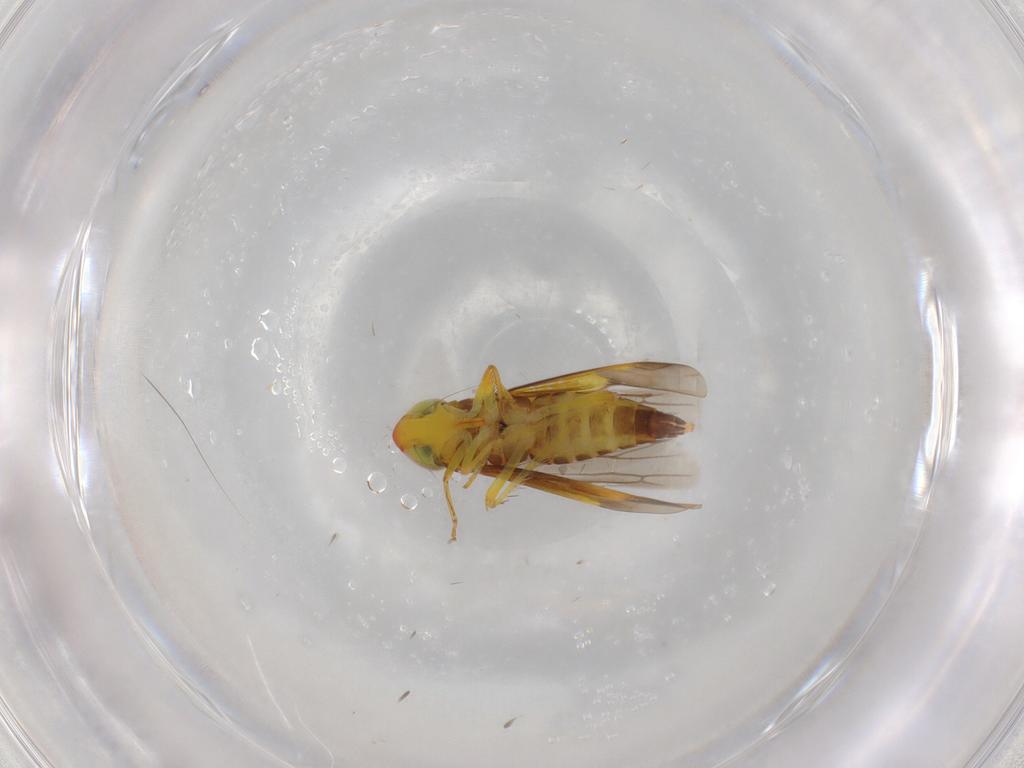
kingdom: Animalia
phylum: Arthropoda
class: Insecta
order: Hemiptera
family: Cicadellidae
